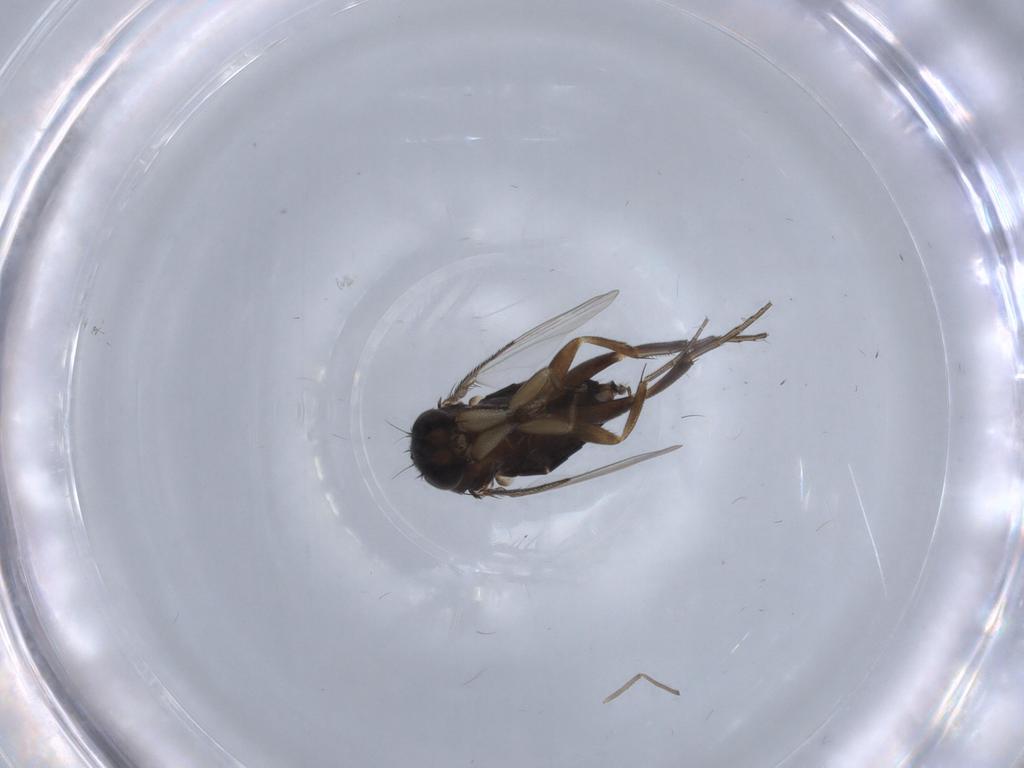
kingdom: Animalia
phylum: Arthropoda
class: Insecta
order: Diptera
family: Phoridae
